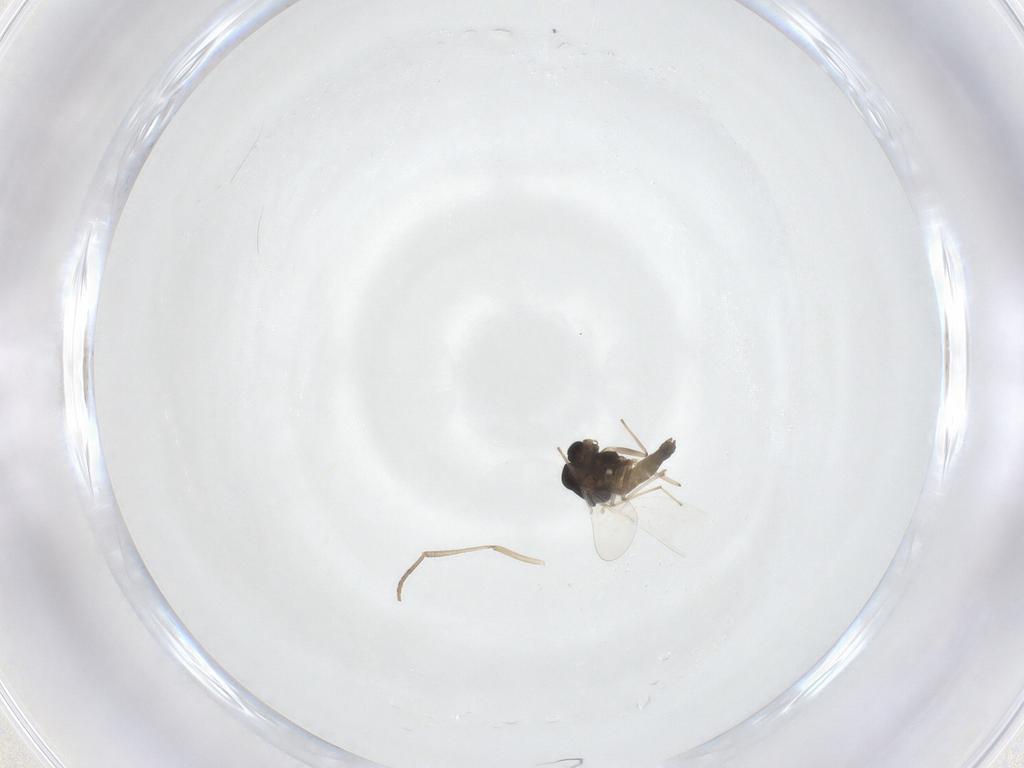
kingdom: Animalia
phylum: Arthropoda
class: Insecta
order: Diptera
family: Chironomidae
